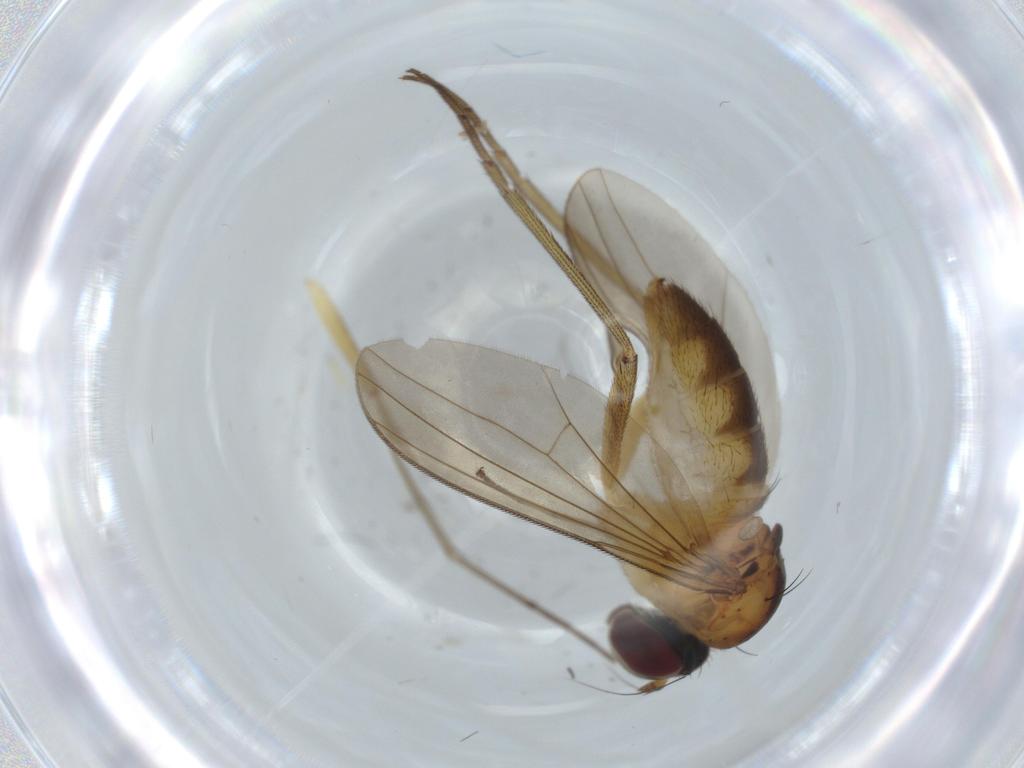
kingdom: Animalia
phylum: Arthropoda
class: Insecta
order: Diptera
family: Dolichopodidae
